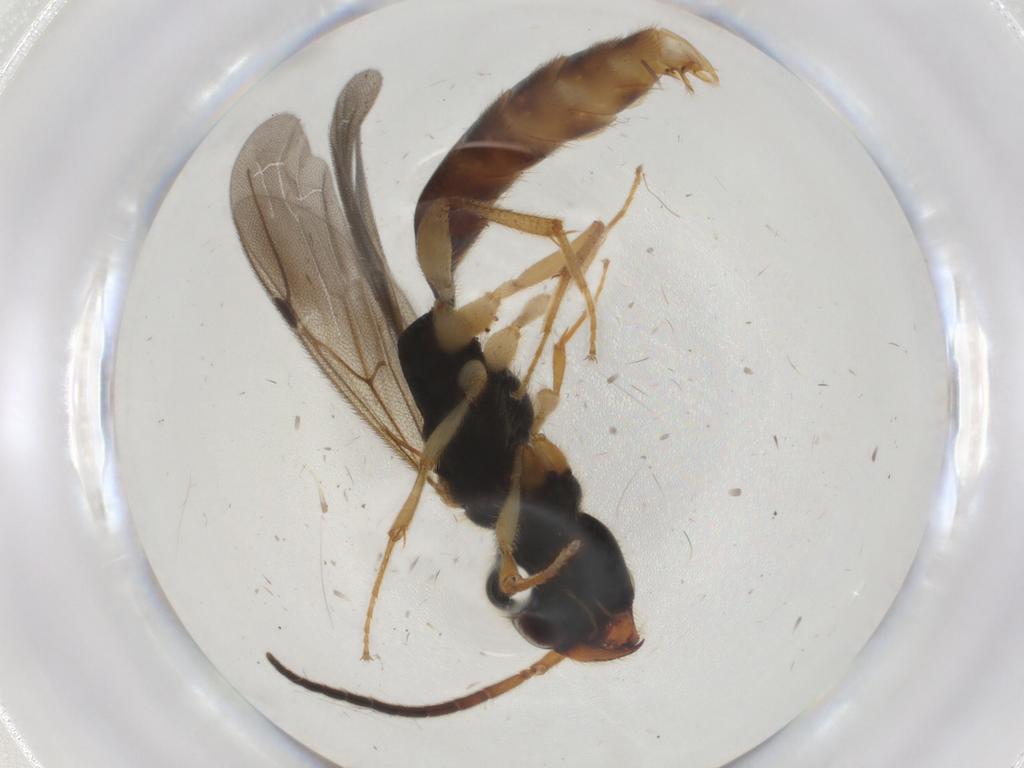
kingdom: Animalia
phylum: Arthropoda
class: Insecta
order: Hymenoptera
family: Bethylidae
